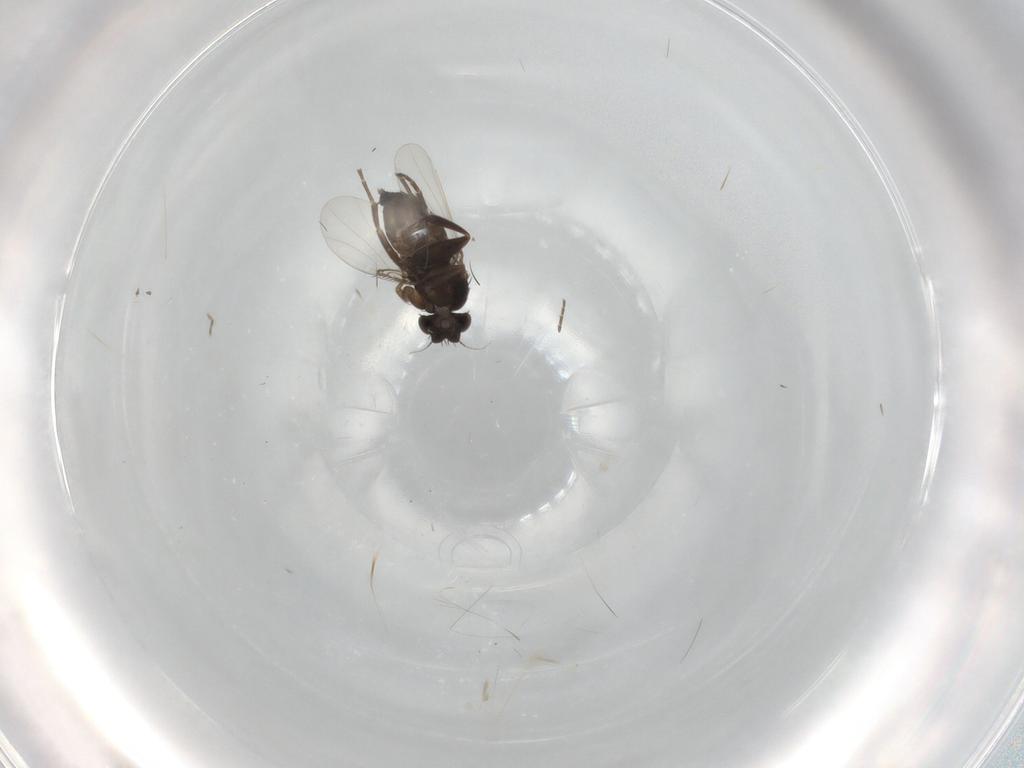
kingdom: Animalia
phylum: Arthropoda
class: Insecta
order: Diptera
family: Phoridae
